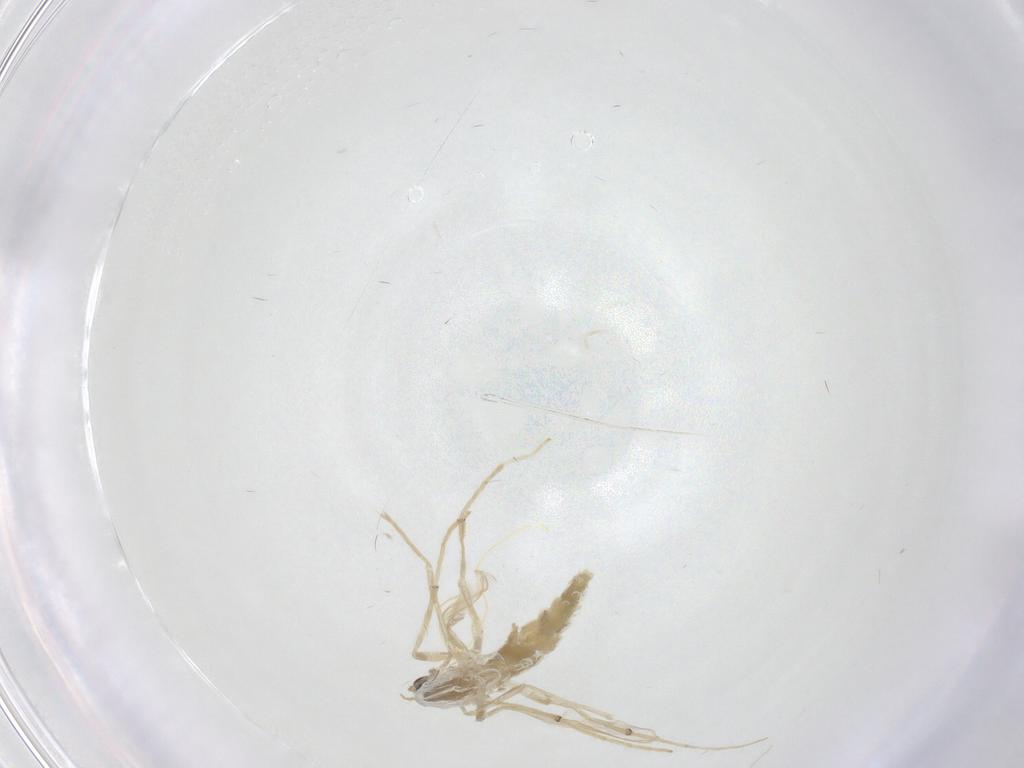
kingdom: Animalia
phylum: Arthropoda
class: Insecta
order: Diptera
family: Chironomidae
